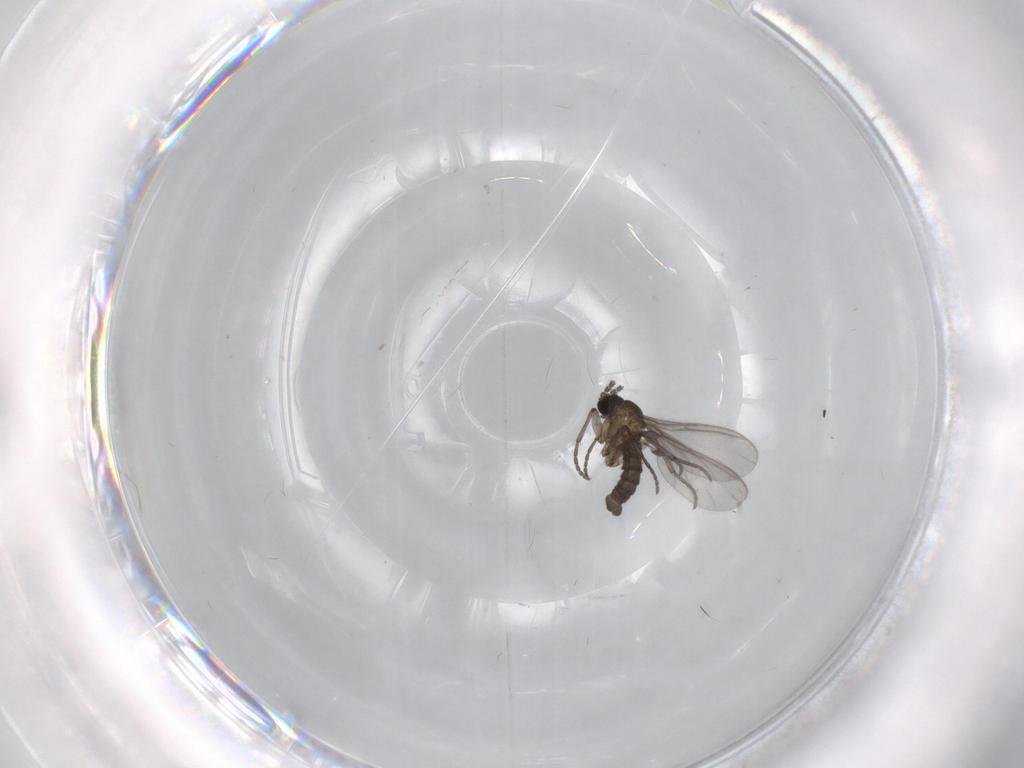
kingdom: Animalia
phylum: Arthropoda
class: Insecta
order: Diptera
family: Sciaridae
